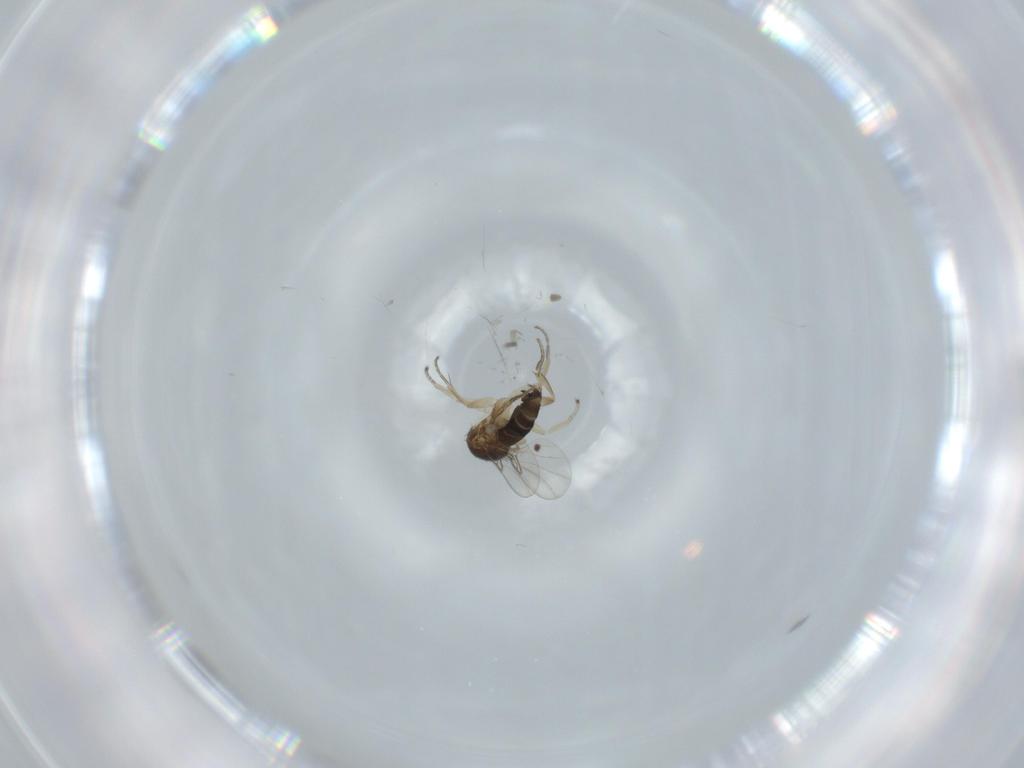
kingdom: Animalia
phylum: Arthropoda
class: Insecta
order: Diptera
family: Phoridae
